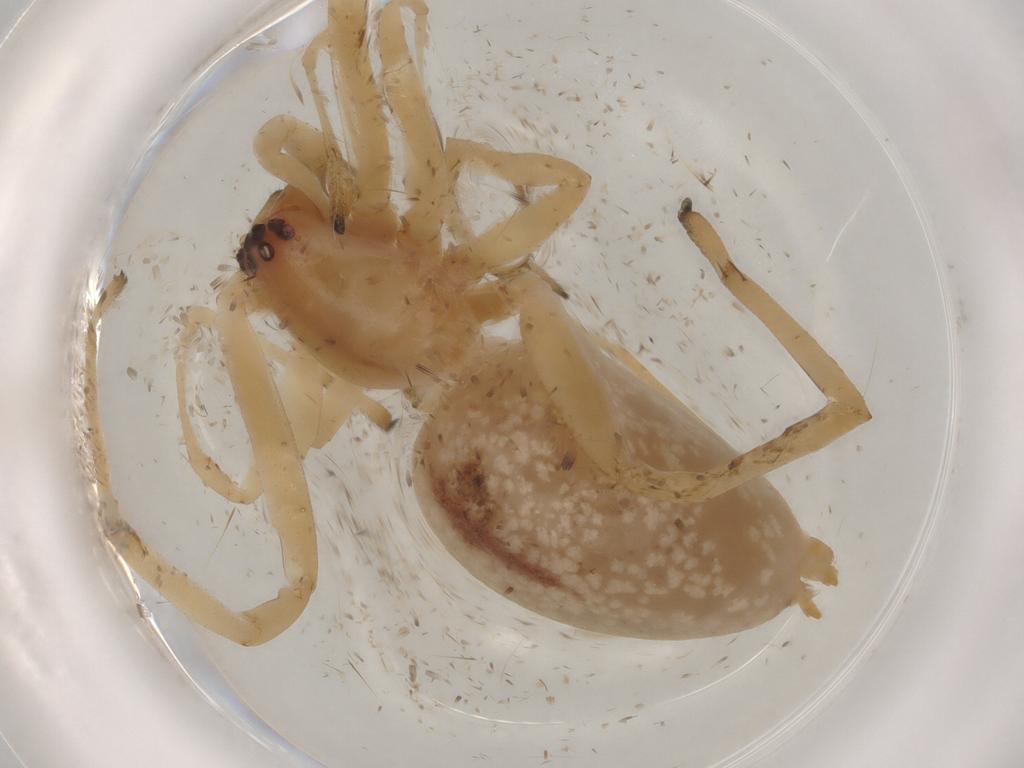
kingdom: Animalia
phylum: Arthropoda
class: Arachnida
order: Araneae
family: Cheiracanthiidae
